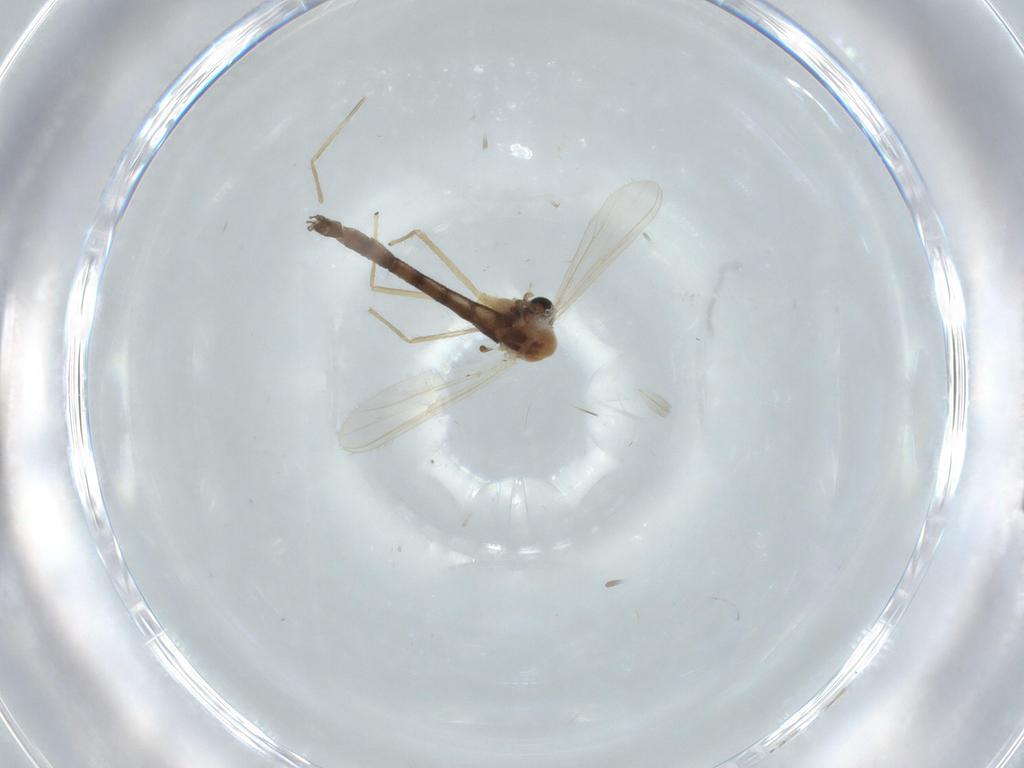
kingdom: Animalia
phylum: Arthropoda
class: Insecta
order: Diptera
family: Chironomidae
